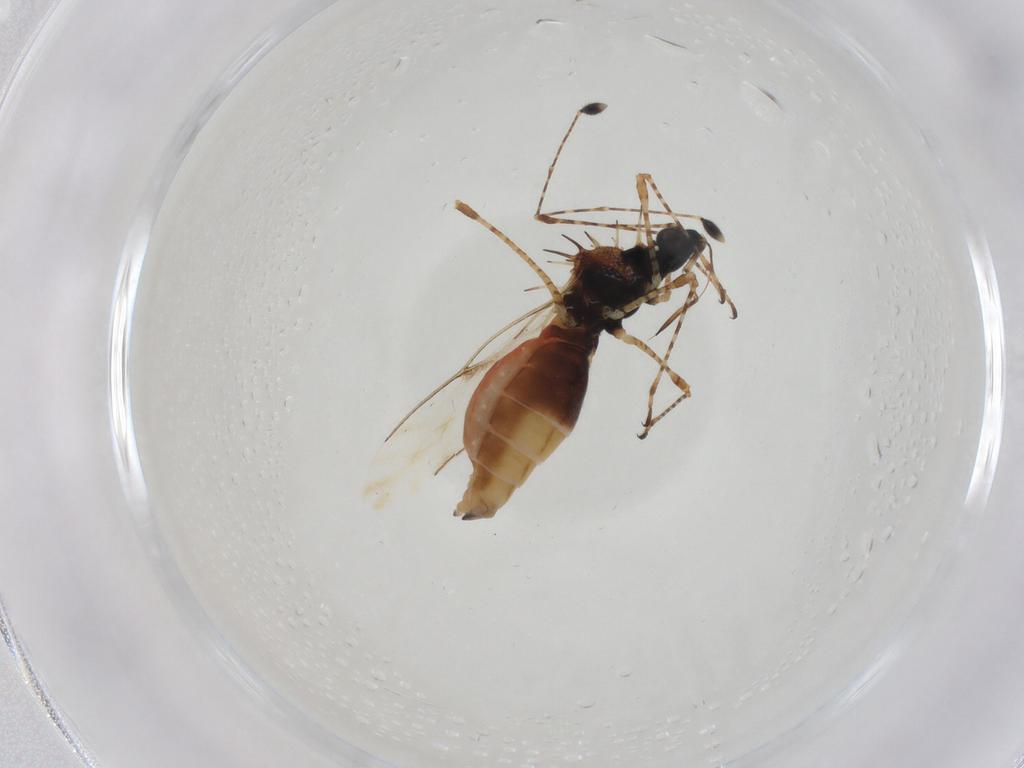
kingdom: Animalia
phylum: Arthropoda
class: Insecta
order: Hemiptera
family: Berytidae
